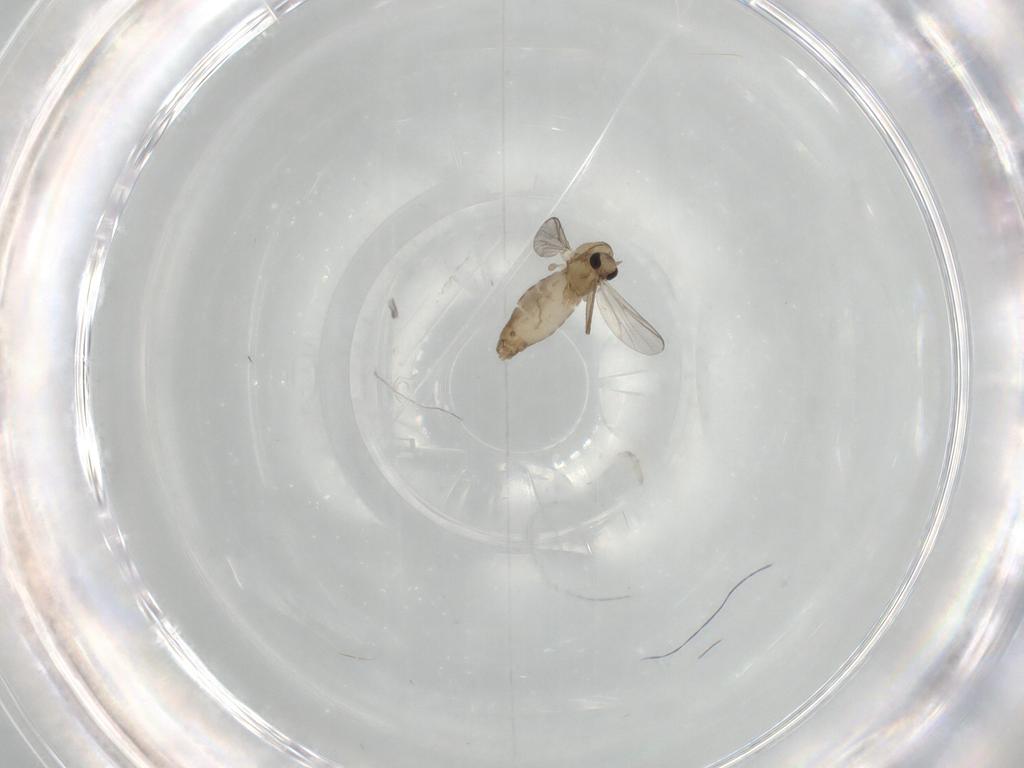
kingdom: Animalia
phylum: Arthropoda
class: Insecta
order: Diptera
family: Chironomidae
